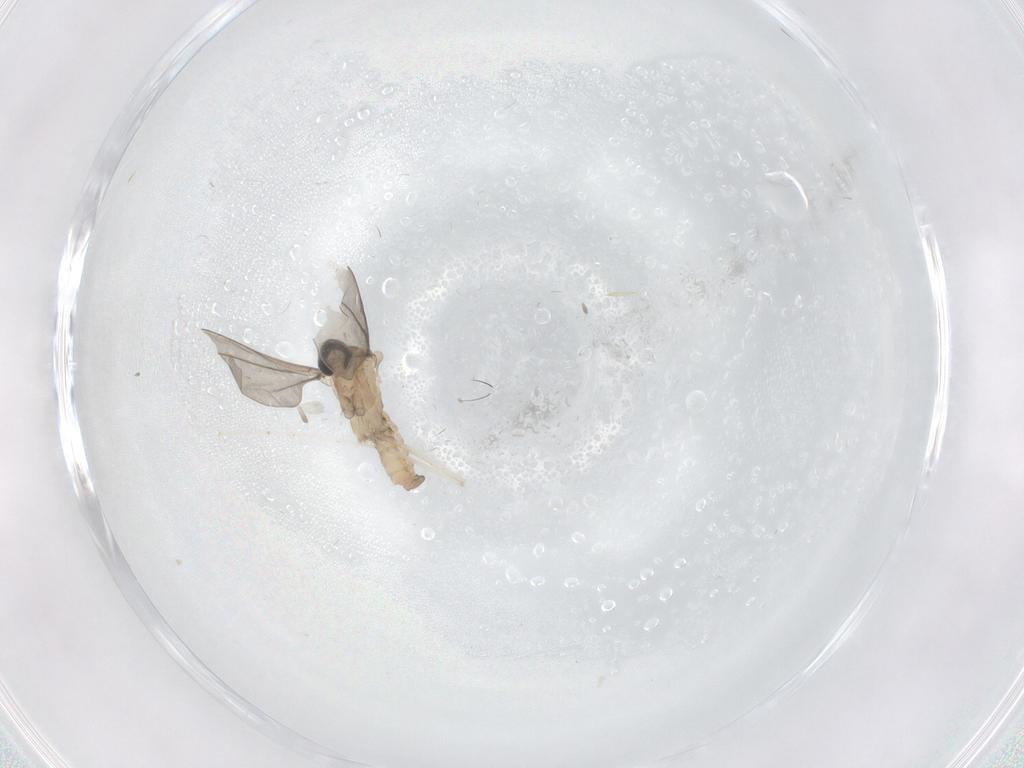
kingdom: Animalia
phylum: Arthropoda
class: Insecta
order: Diptera
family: Cecidomyiidae
